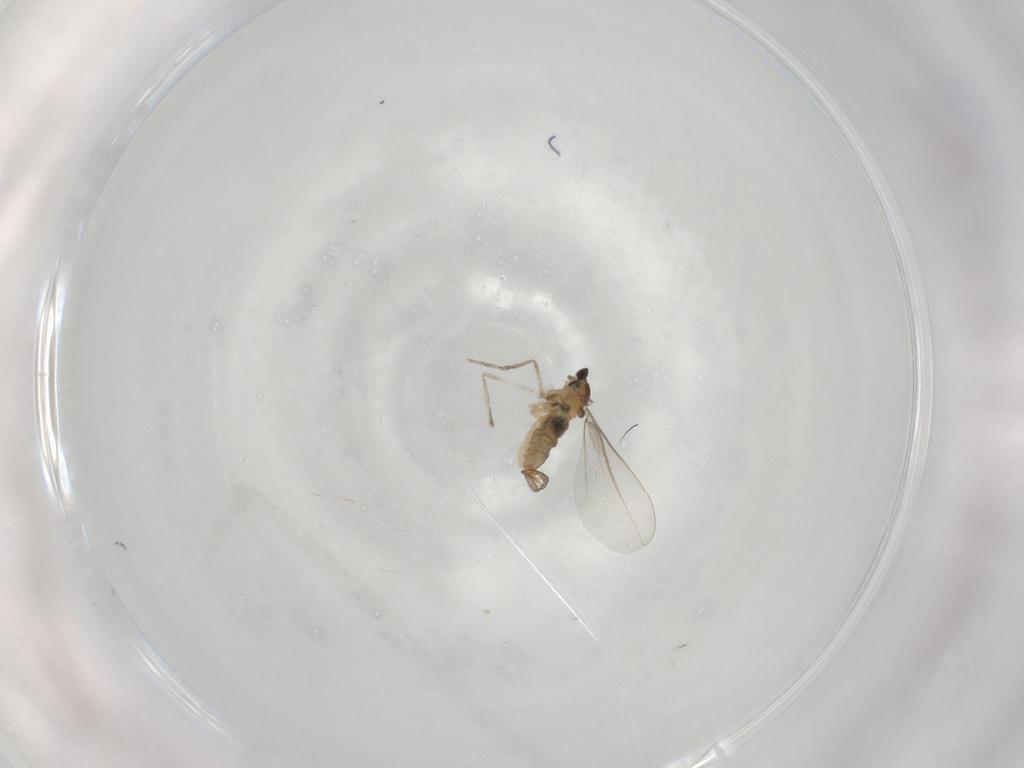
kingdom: Animalia
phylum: Arthropoda
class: Insecta
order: Diptera
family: Cecidomyiidae
